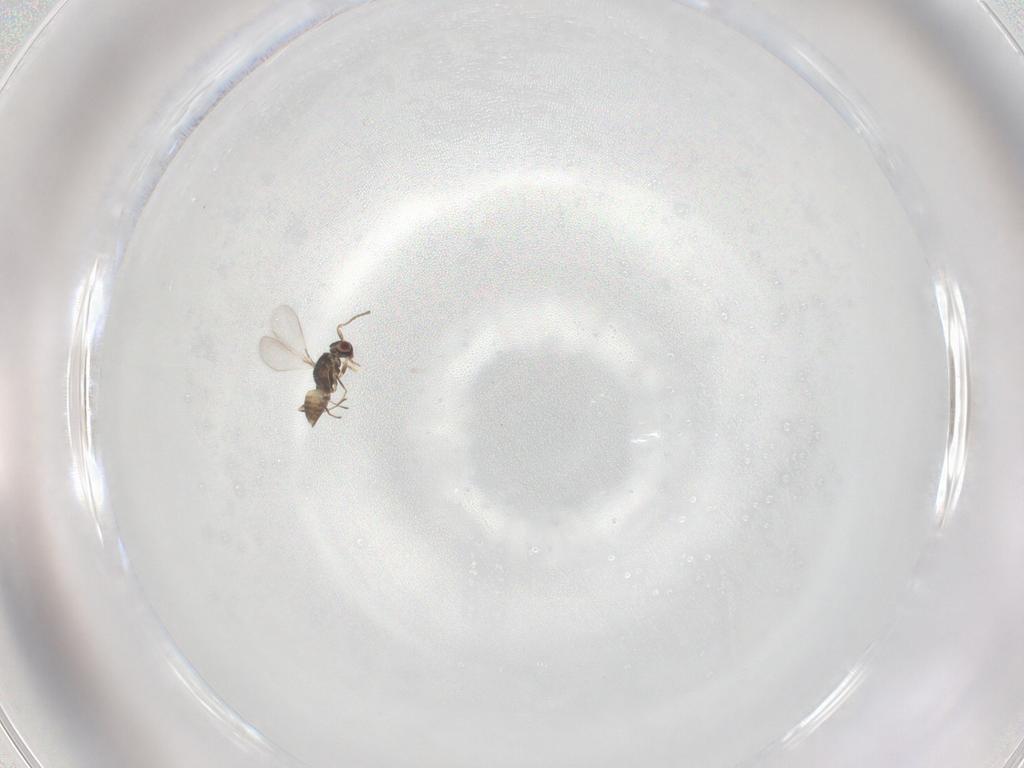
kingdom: Animalia
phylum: Arthropoda
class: Insecta
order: Hymenoptera
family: Mymaridae
